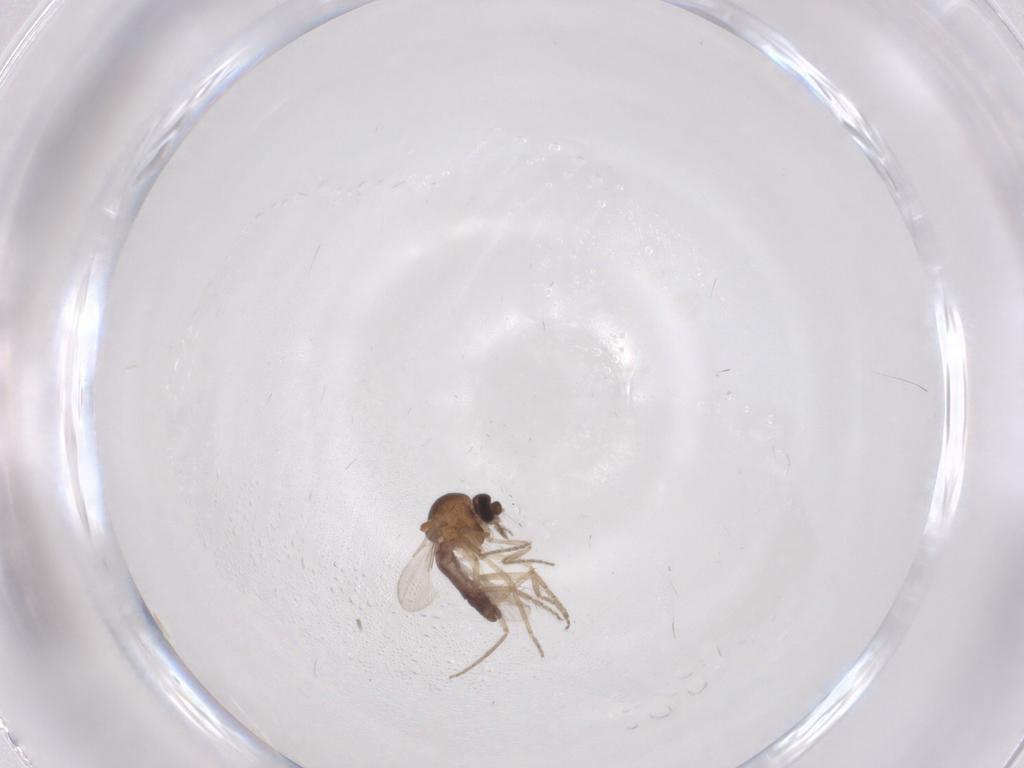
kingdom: Animalia
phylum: Arthropoda
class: Insecta
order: Diptera
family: Ceratopogonidae
